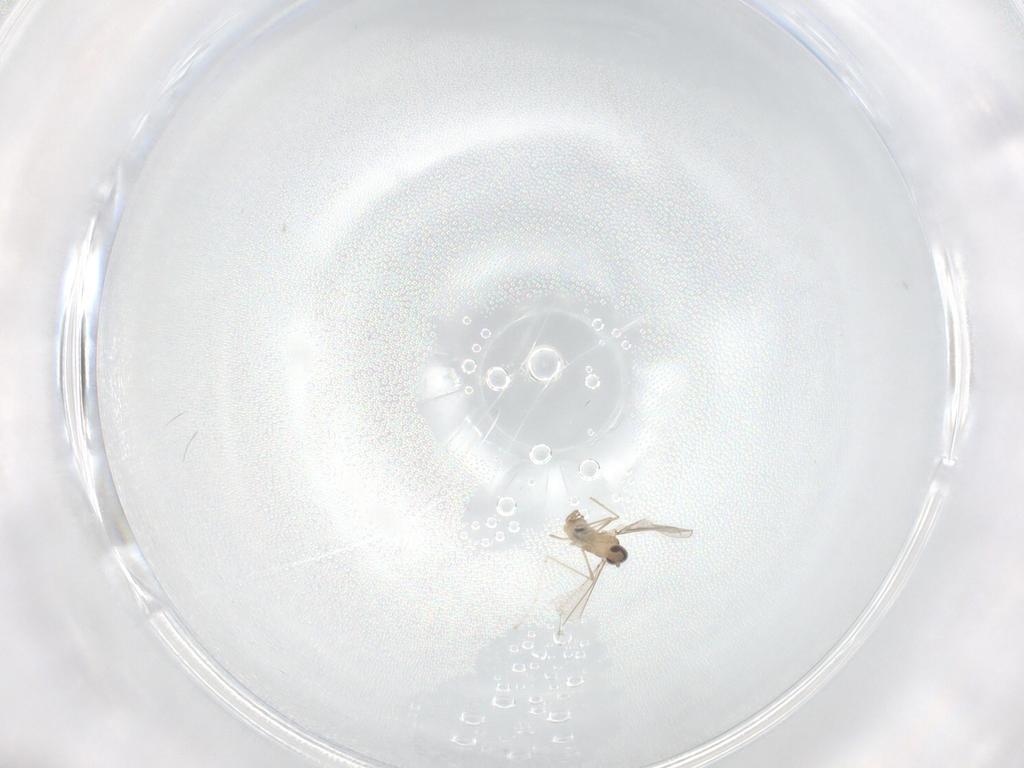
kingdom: Animalia
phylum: Arthropoda
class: Insecta
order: Diptera
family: Cecidomyiidae
